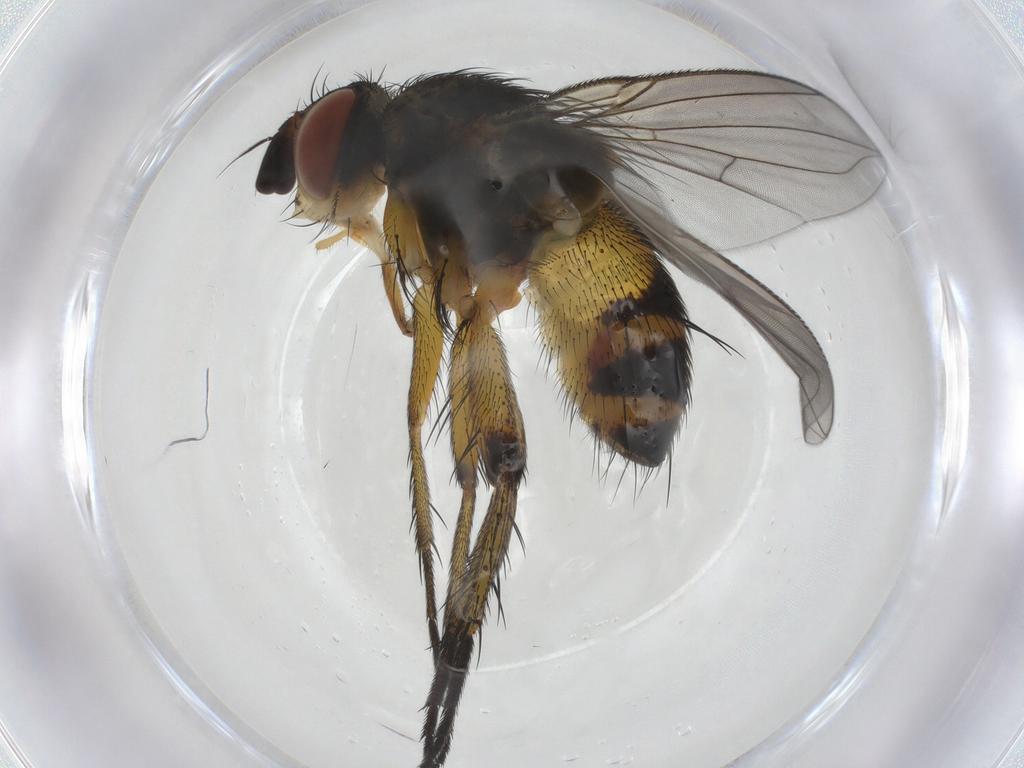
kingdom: Animalia
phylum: Arthropoda
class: Insecta
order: Diptera
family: Tachinidae
